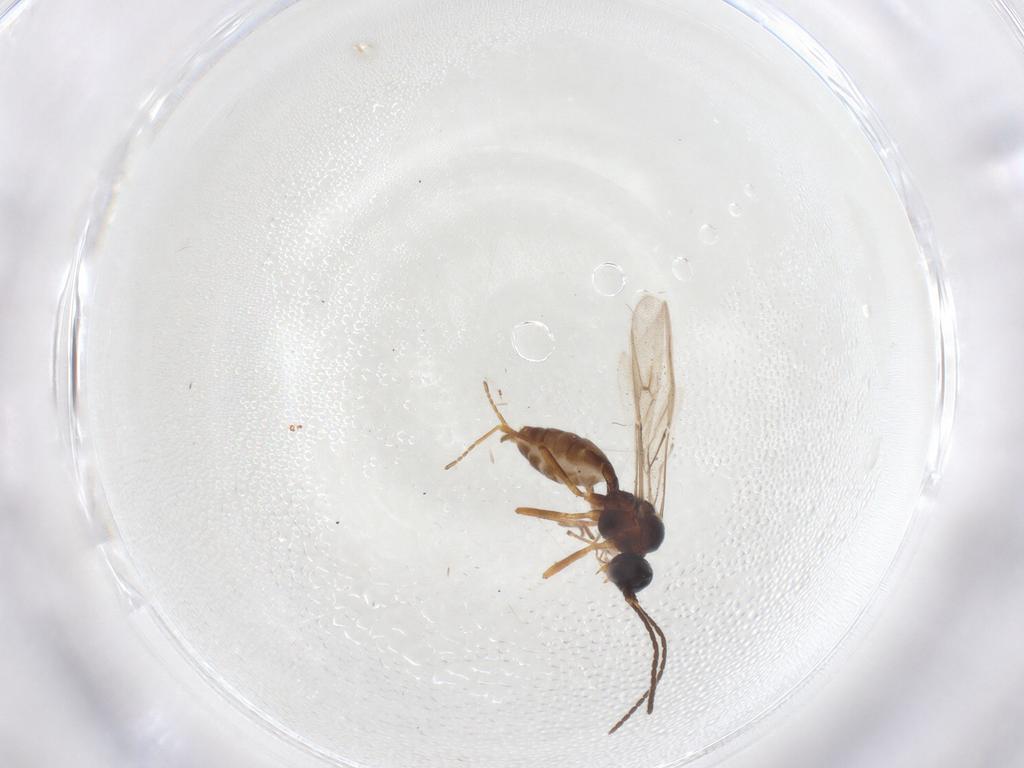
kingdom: Animalia
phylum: Arthropoda
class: Insecta
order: Hymenoptera
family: Braconidae
